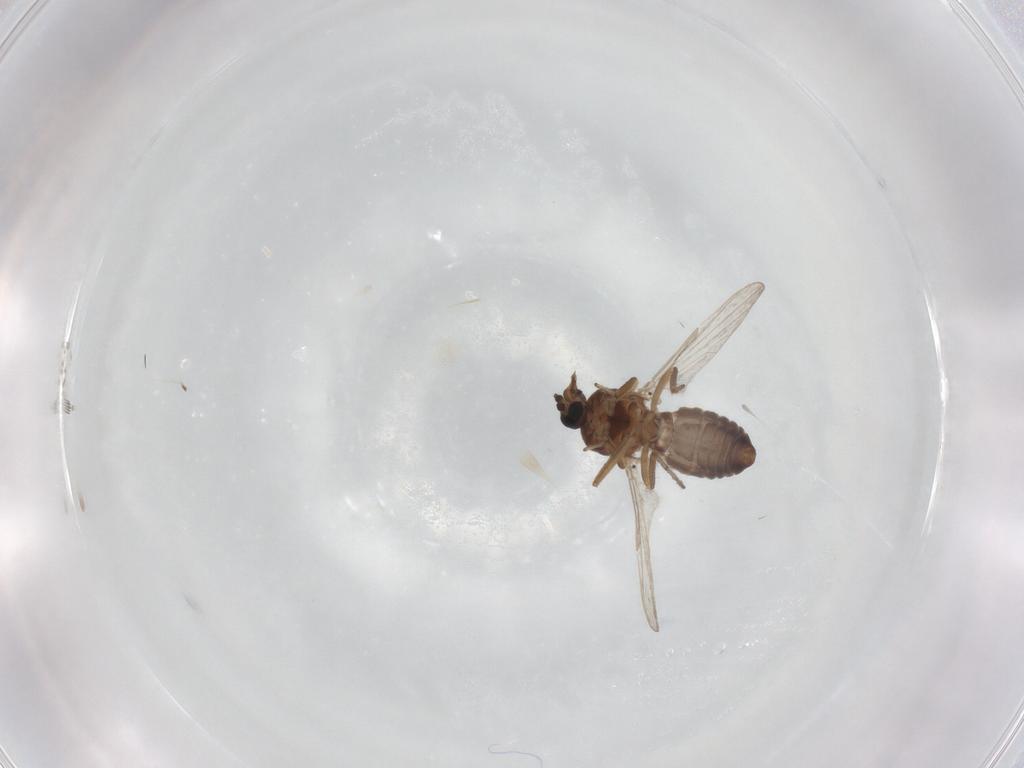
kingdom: Animalia
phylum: Arthropoda
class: Insecta
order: Diptera
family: Ceratopogonidae
